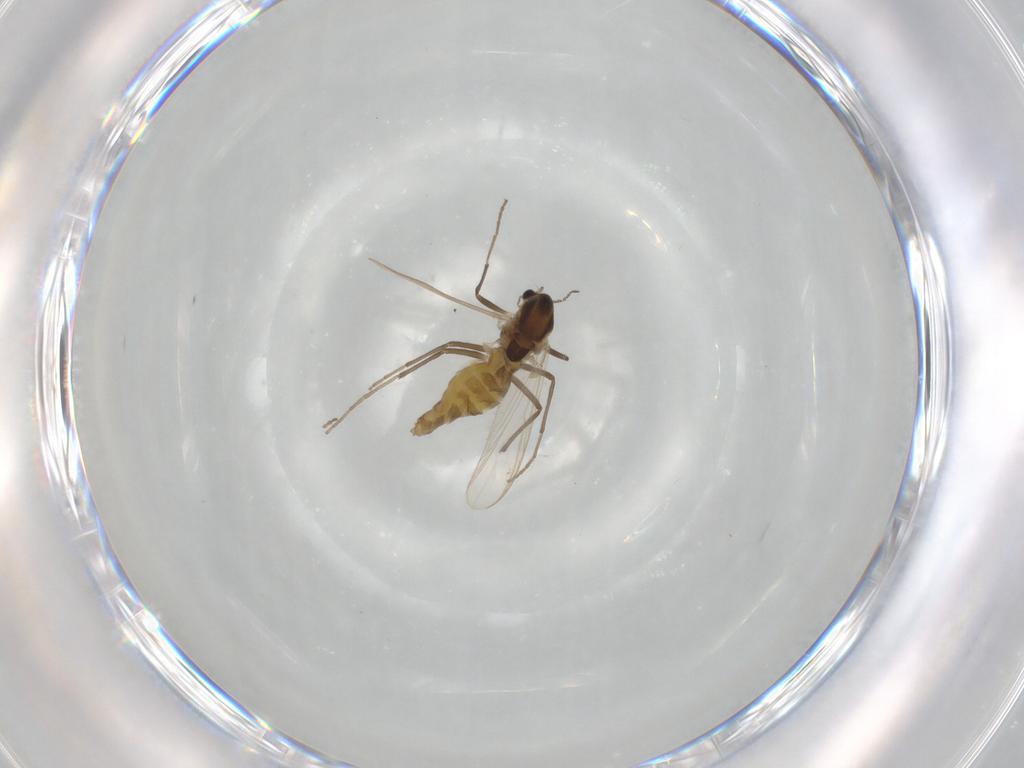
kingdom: Animalia
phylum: Arthropoda
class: Insecta
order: Diptera
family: Chironomidae
